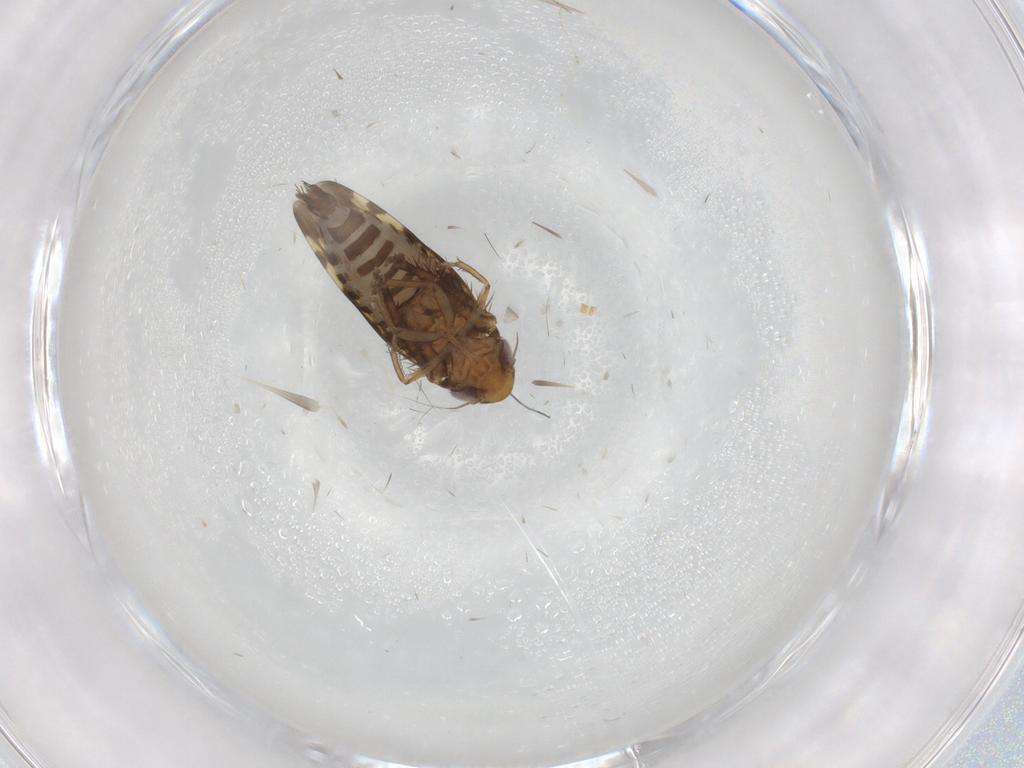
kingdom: Animalia
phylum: Arthropoda
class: Insecta
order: Hemiptera
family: Cicadellidae
